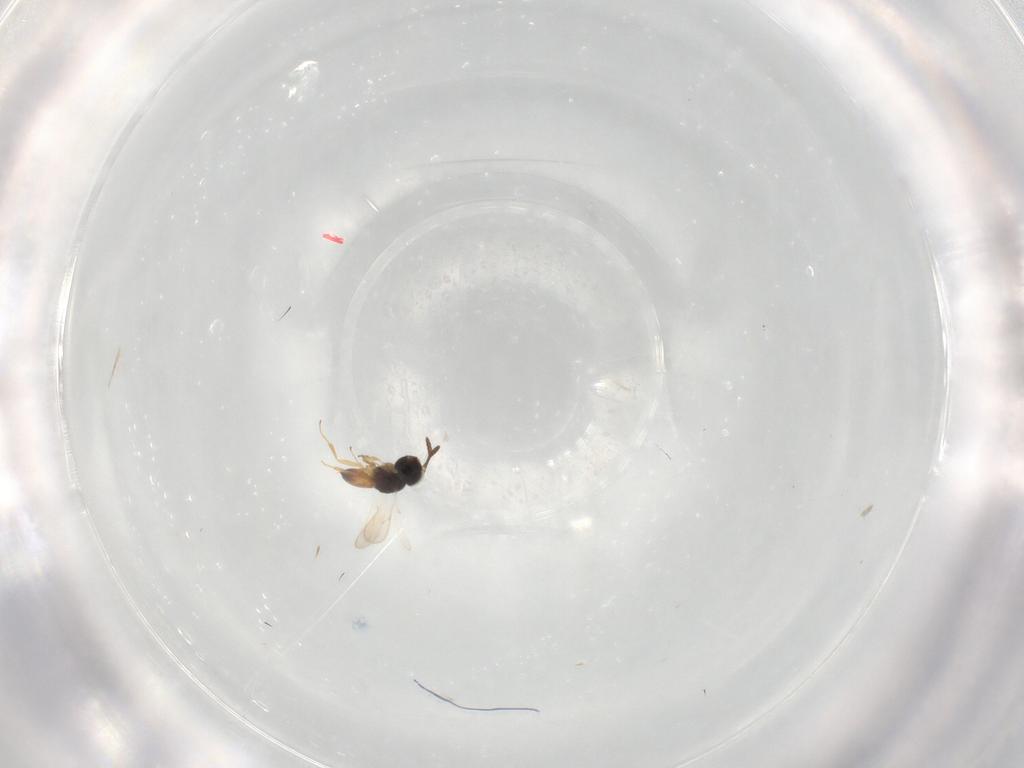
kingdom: Animalia
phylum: Arthropoda
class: Insecta
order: Hymenoptera
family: Scelionidae
